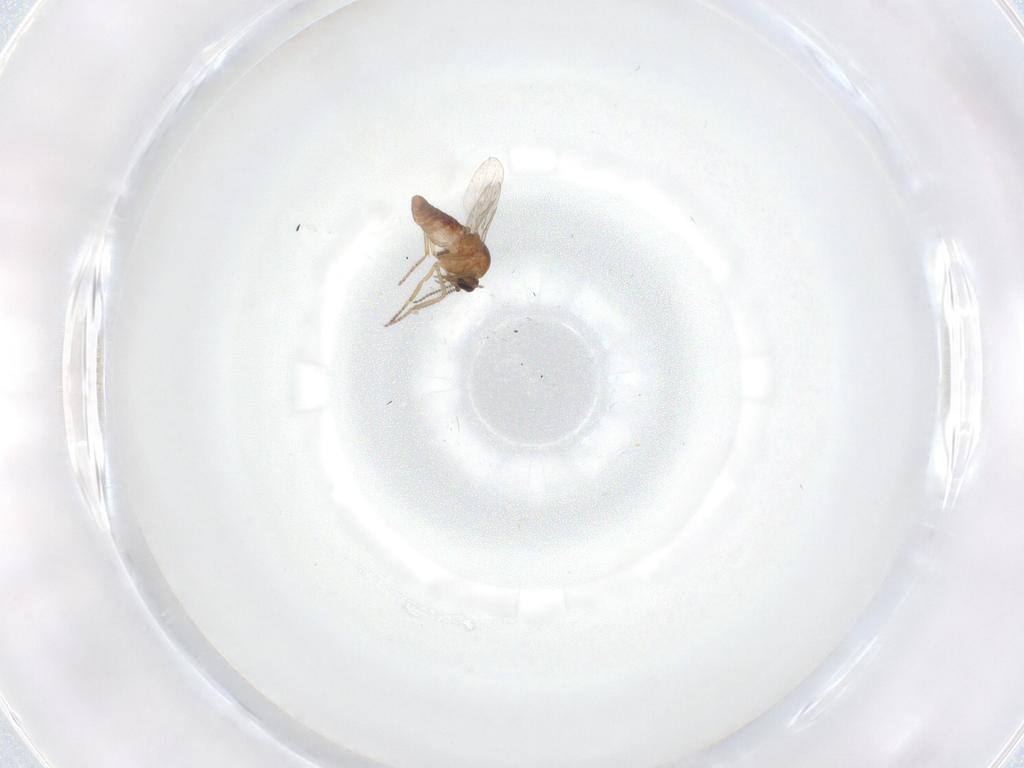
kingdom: Animalia
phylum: Arthropoda
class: Insecta
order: Diptera
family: Ceratopogonidae
